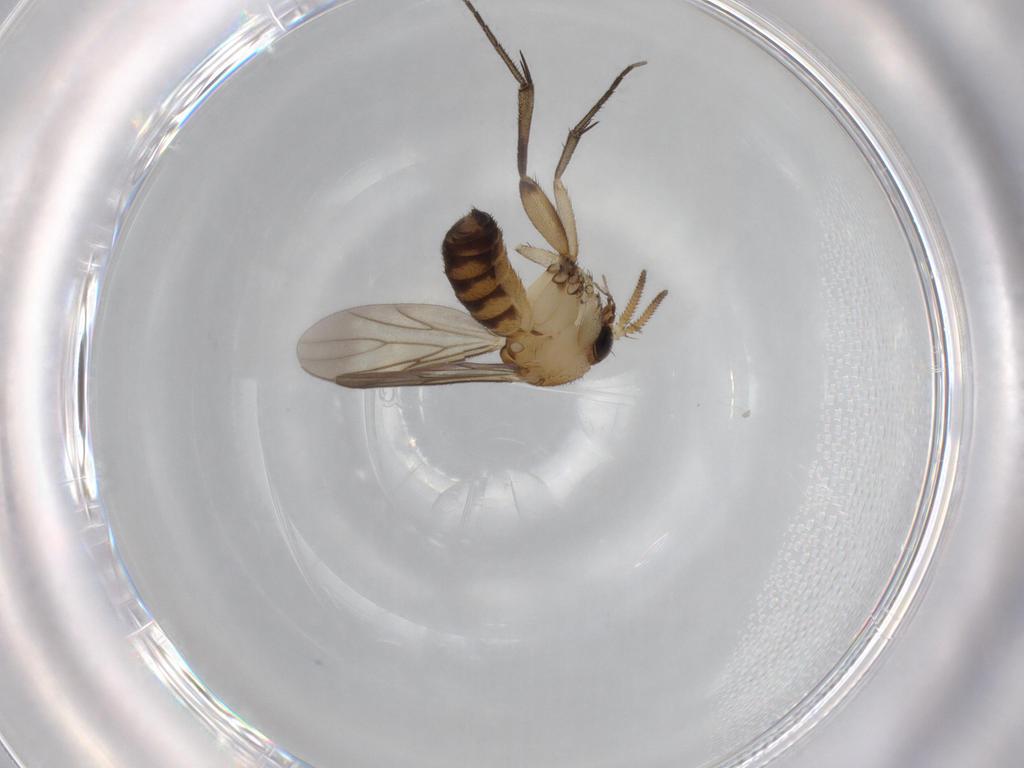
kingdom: Animalia
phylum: Arthropoda
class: Insecta
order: Diptera
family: Mycetophilidae
